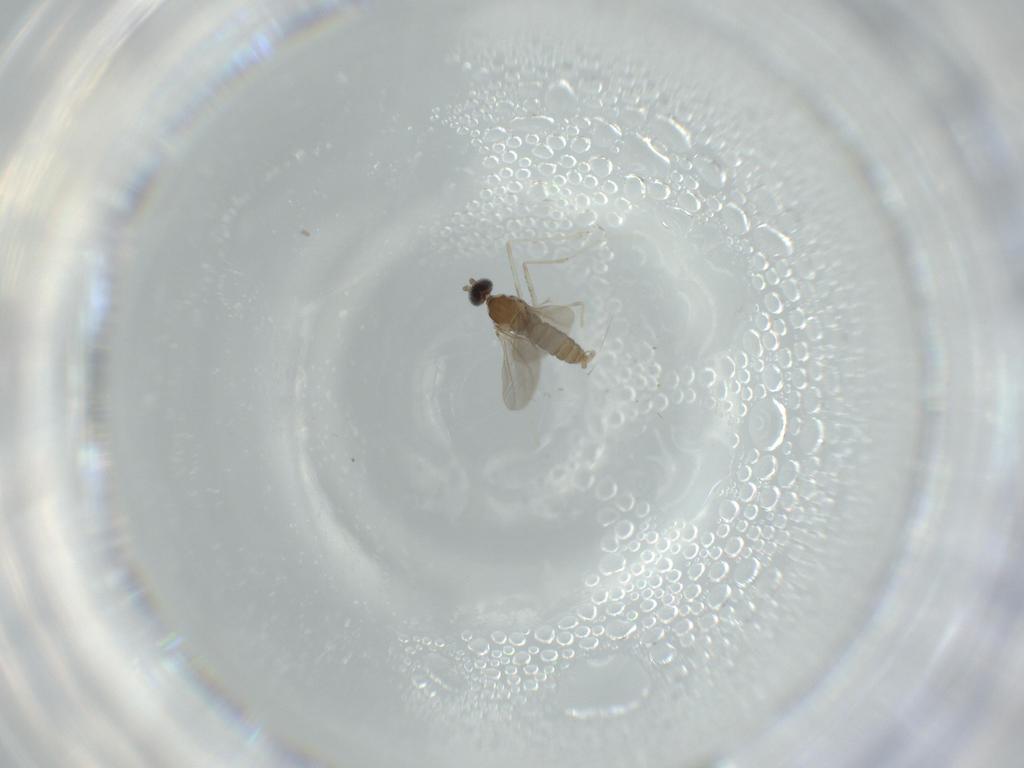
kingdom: Animalia
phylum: Arthropoda
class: Insecta
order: Diptera
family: Cecidomyiidae
